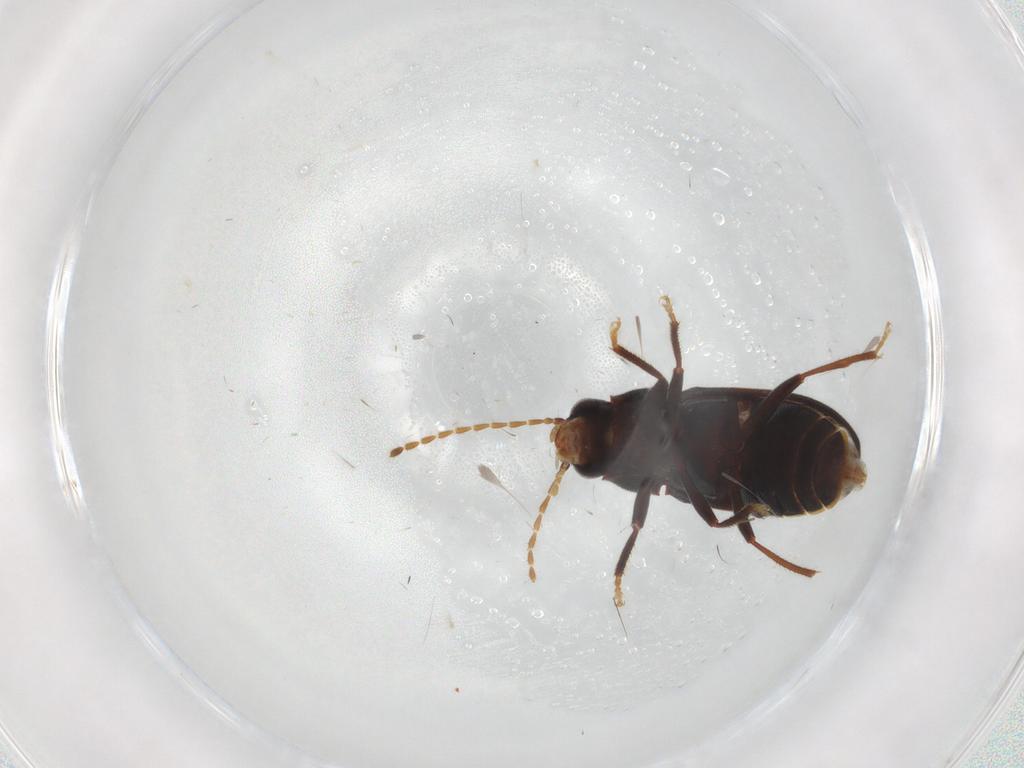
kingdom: Animalia
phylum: Arthropoda
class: Insecta
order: Coleoptera
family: Ptilodactylidae
